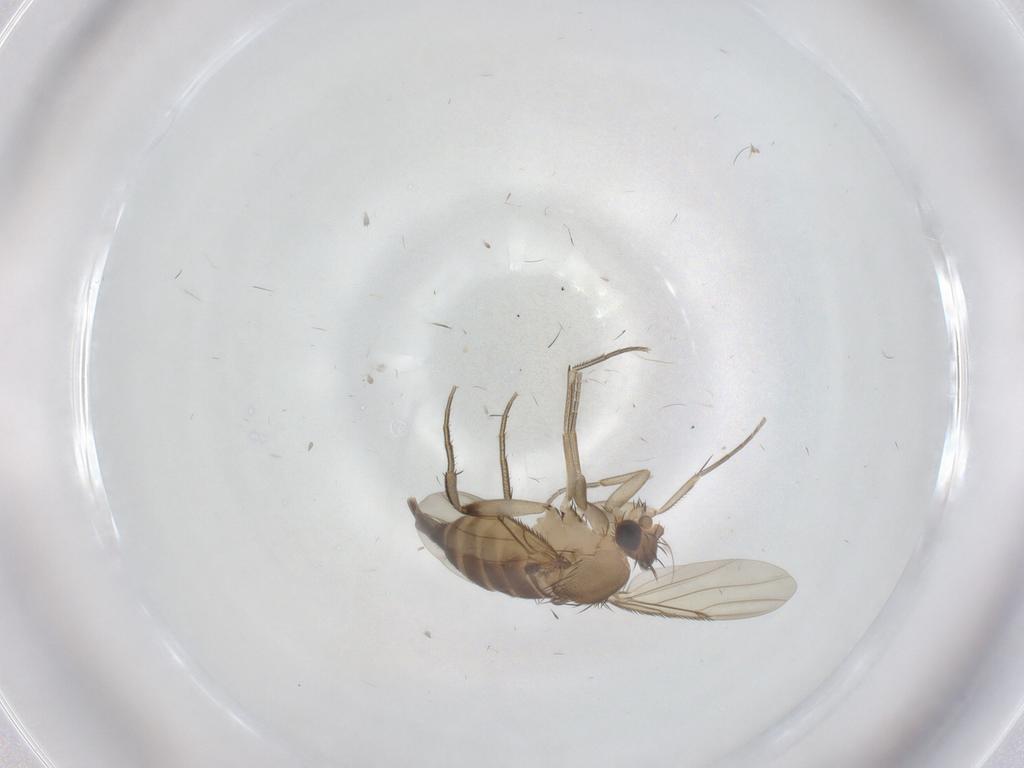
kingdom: Animalia
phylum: Arthropoda
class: Insecta
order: Diptera
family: Phoridae
